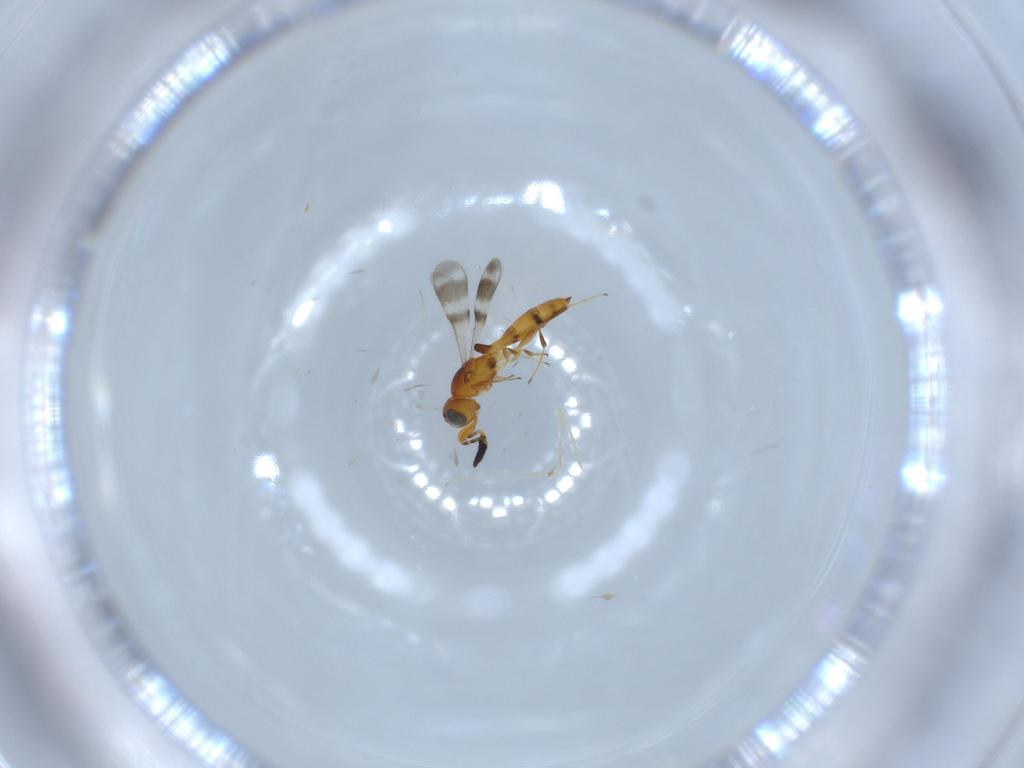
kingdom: Animalia
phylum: Arthropoda
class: Insecta
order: Hymenoptera
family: Scelionidae
